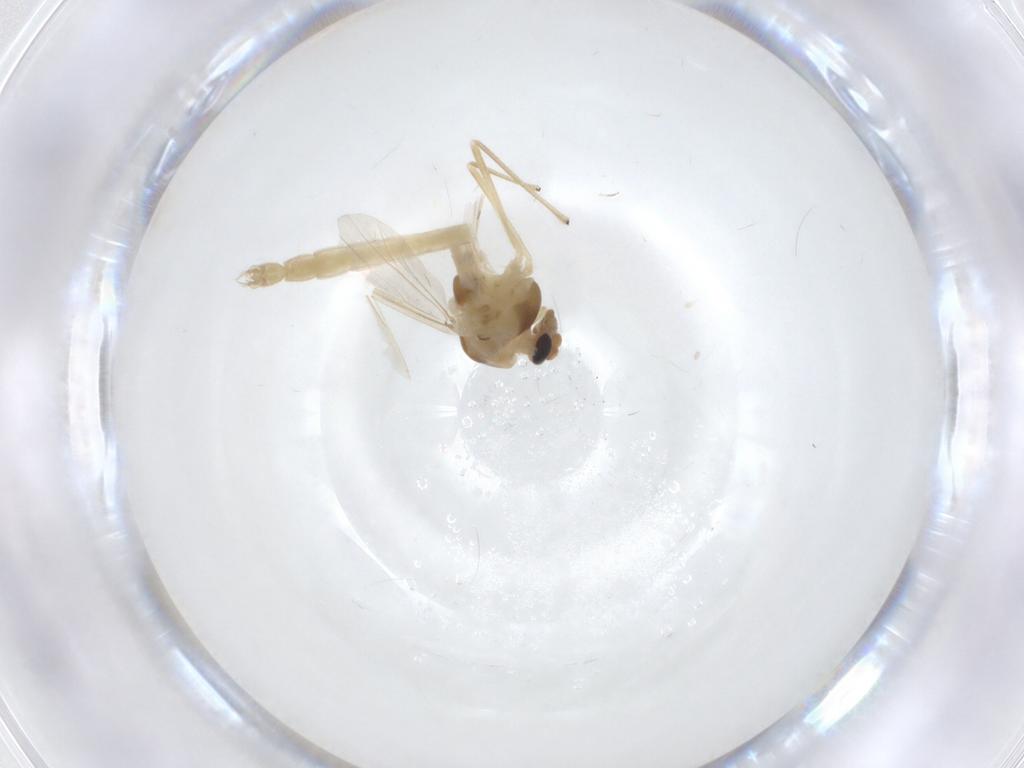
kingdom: Animalia
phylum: Arthropoda
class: Insecta
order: Diptera
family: Chironomidae
